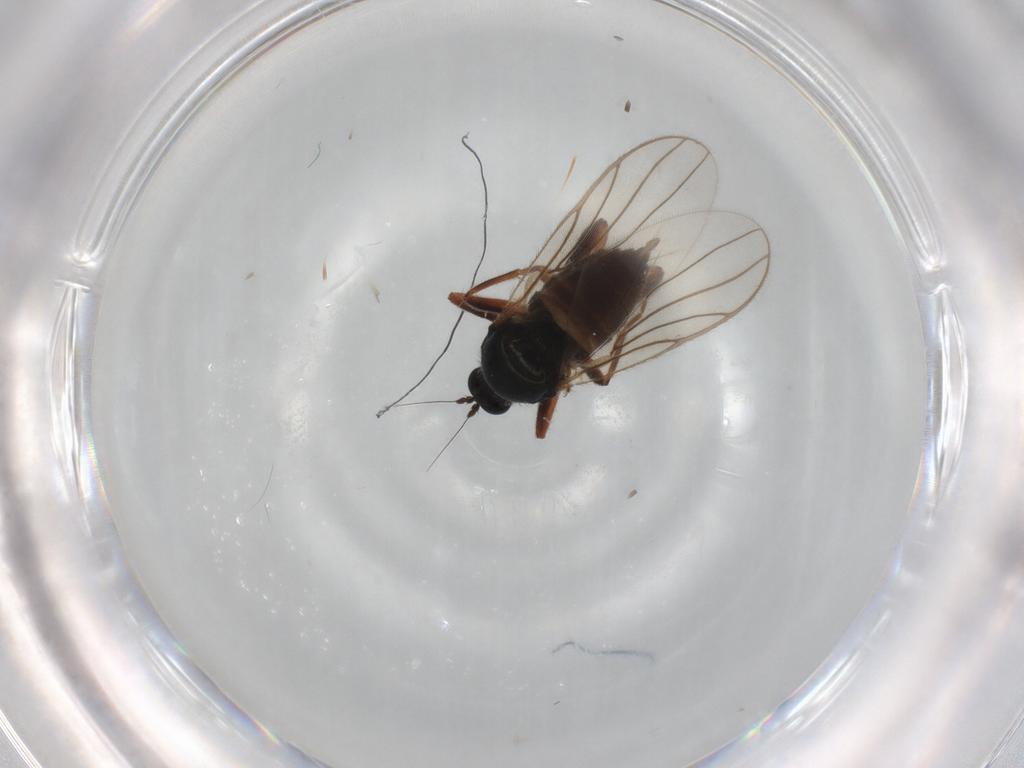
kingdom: Animalia
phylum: Arthropoda
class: Insecta
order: Diptera
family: Hybotidae
